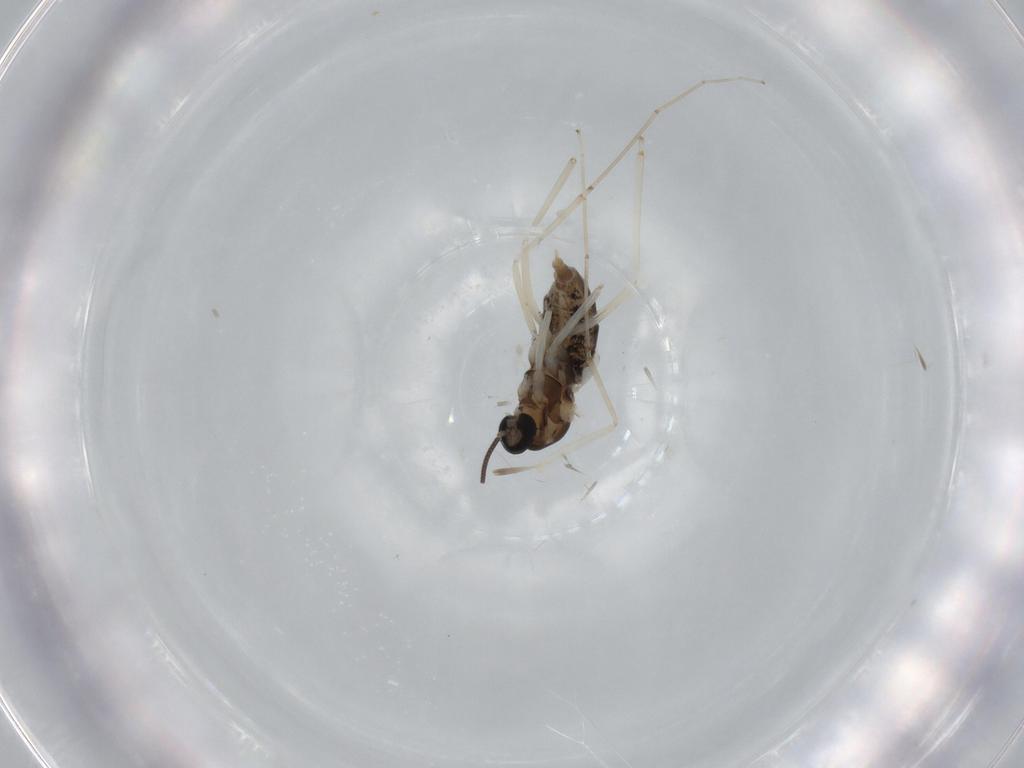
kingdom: Animalia
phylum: Arthropoda
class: Insecta
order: Diptera
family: Cecidomyiidae
